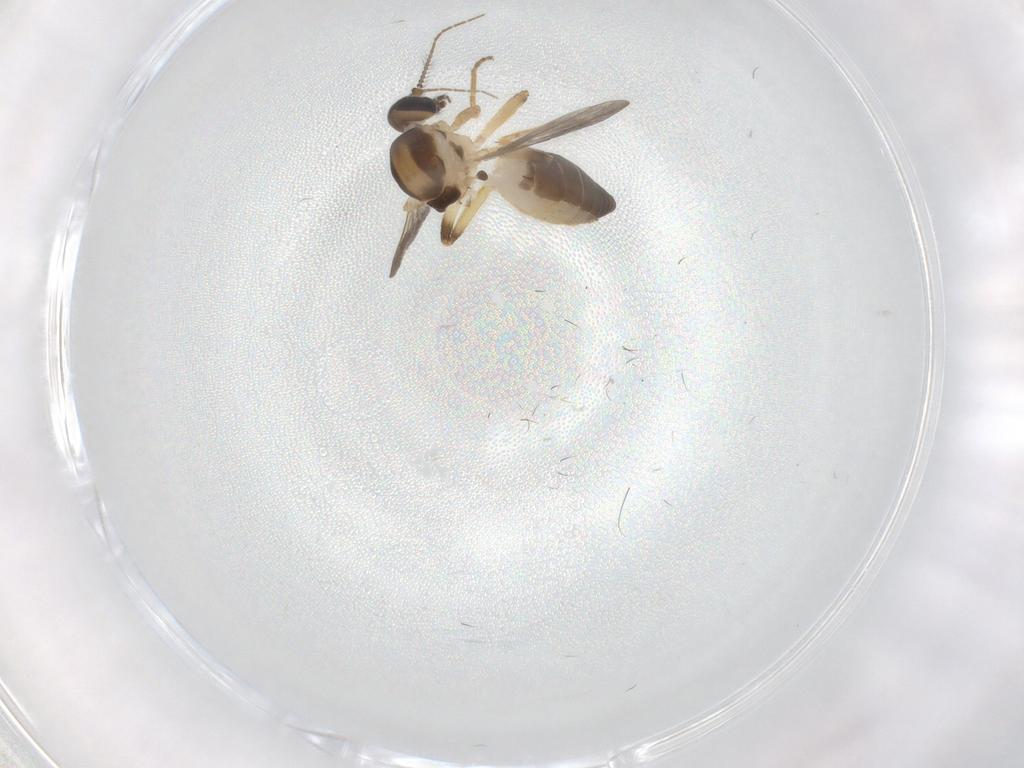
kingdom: Animalia
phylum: Arthropoda
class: Insecta
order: Diptera
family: Ceratopogonidae
